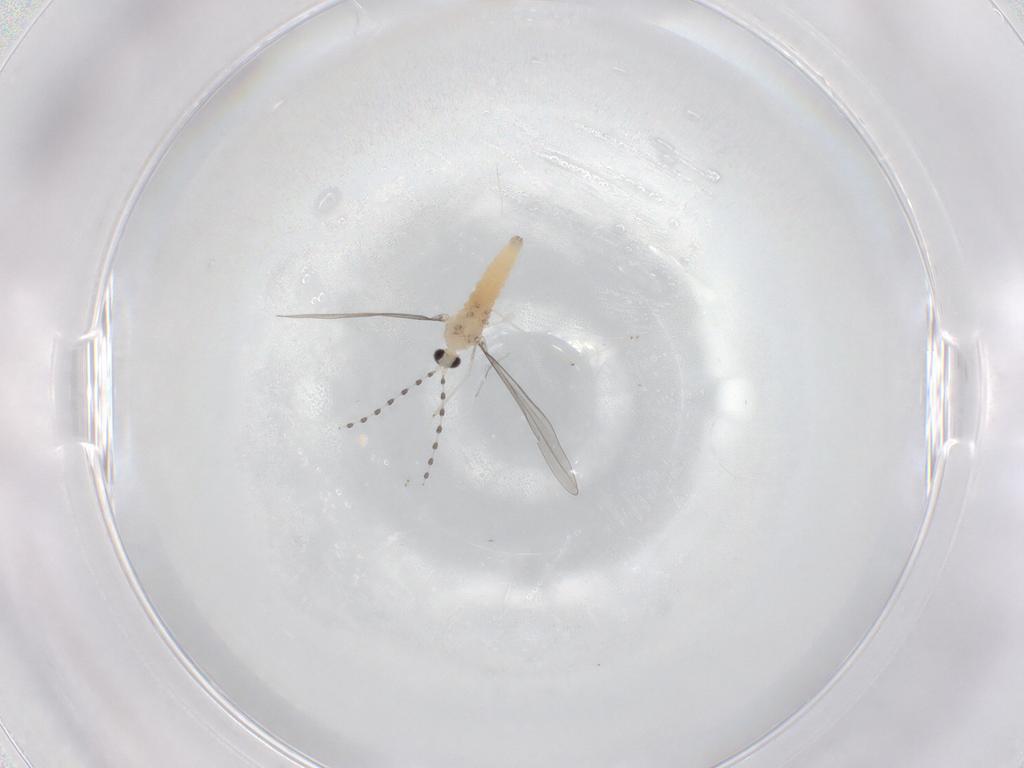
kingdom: Animalia
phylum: Arthropoda
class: Insecta
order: Diptera
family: Cecidomyiidae
